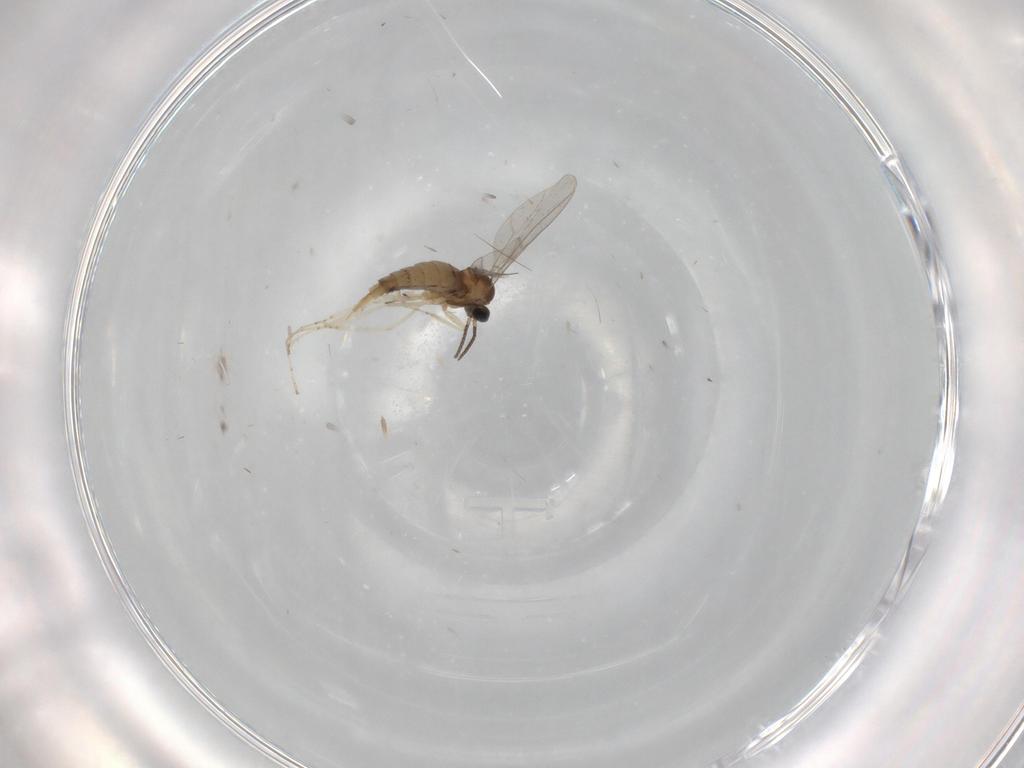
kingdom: Animalia
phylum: Arthropoda
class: Insecta
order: Diptera
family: Cecidomyiidae
